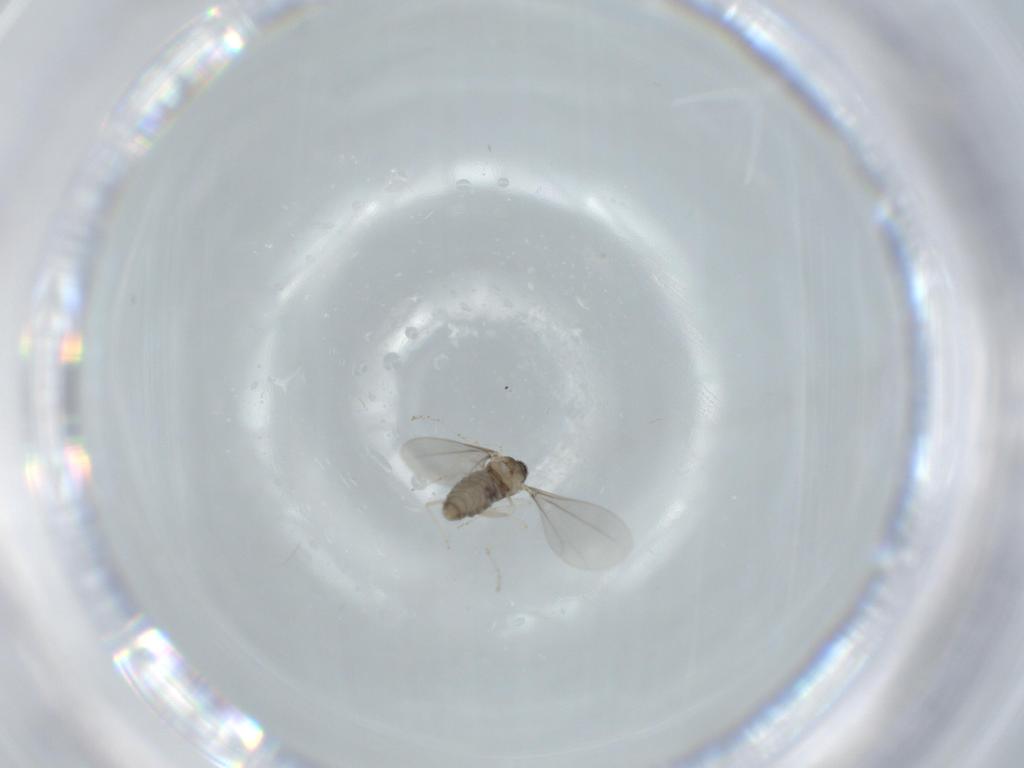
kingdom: Animalia
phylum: Arthropoda
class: Insecta
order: Diptera
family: Cecidomyiidae
